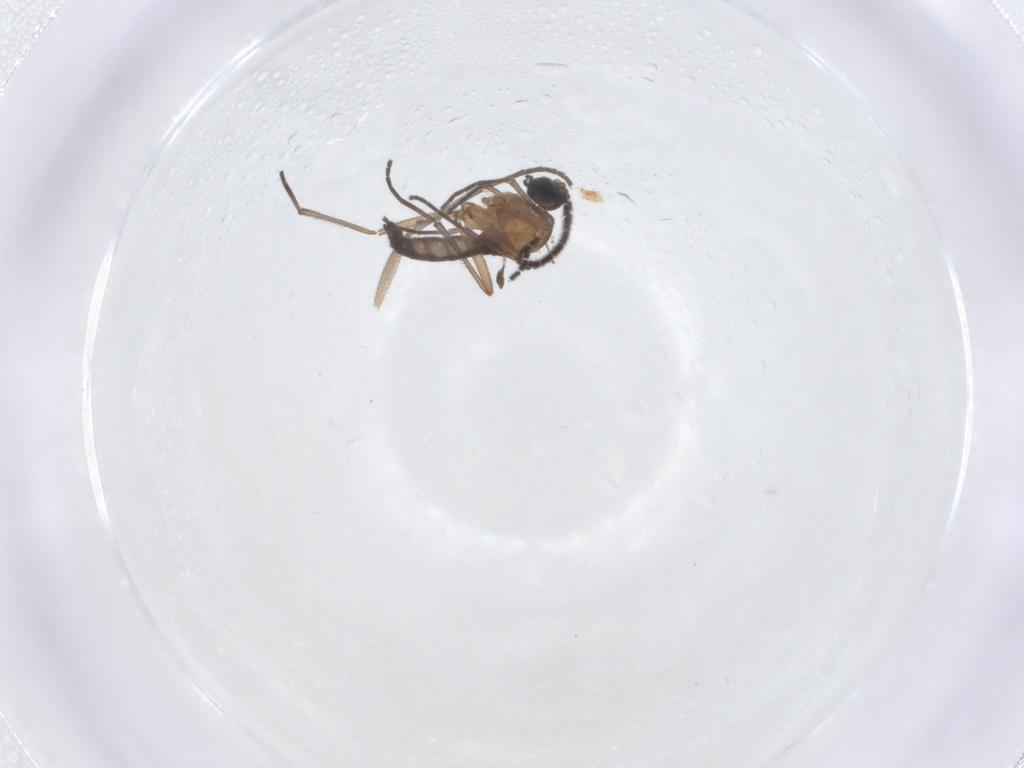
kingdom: Animalia
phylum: Arthropoda
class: Insecta
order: Diptera
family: Sciaridae
